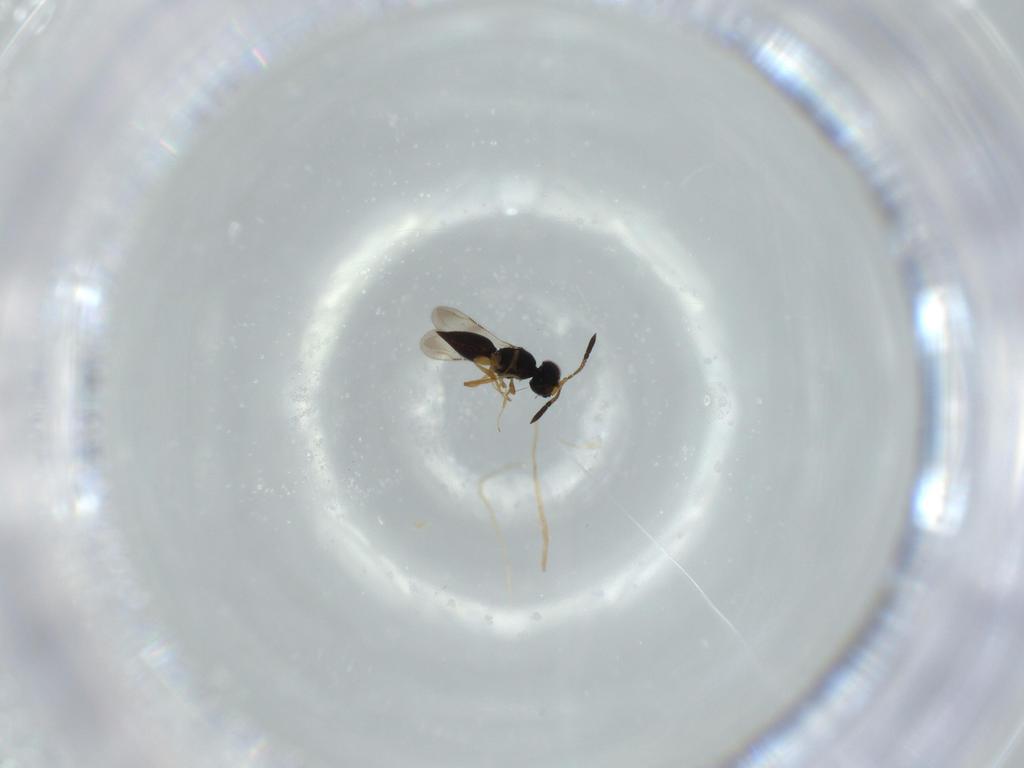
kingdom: Animalia
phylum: Arthropoda
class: Insecta
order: Hymenoptera
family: Ceraphronidae
